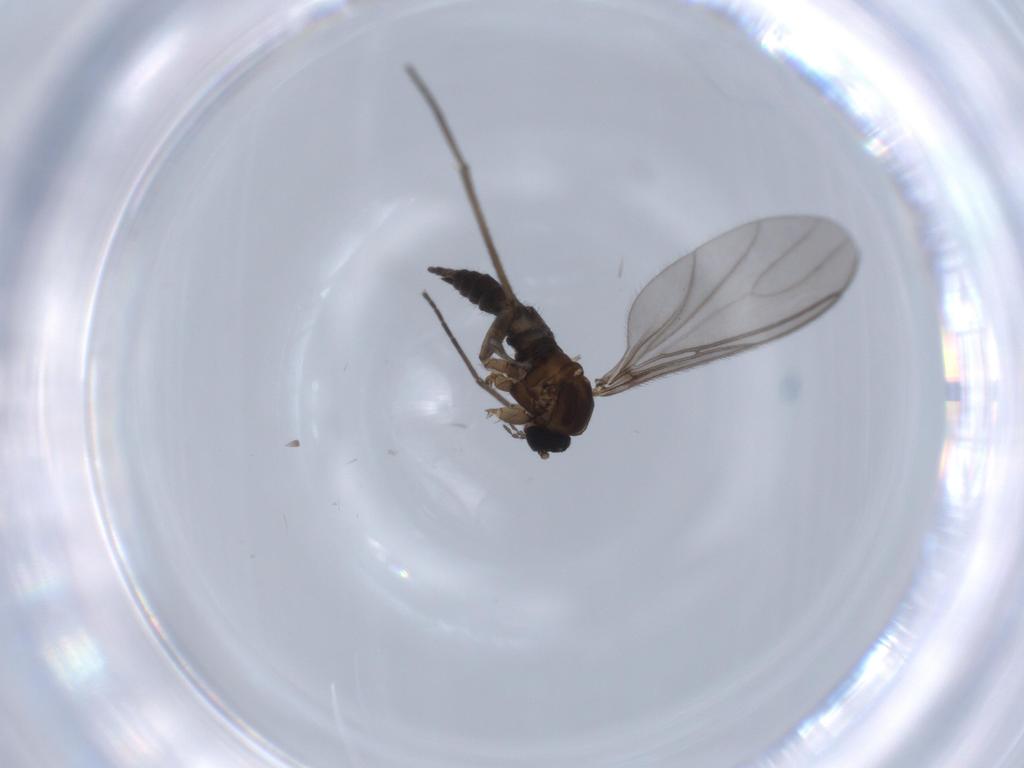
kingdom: Animalia
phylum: Arthropoda
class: Insecta
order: Diptera
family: Sciaridae
